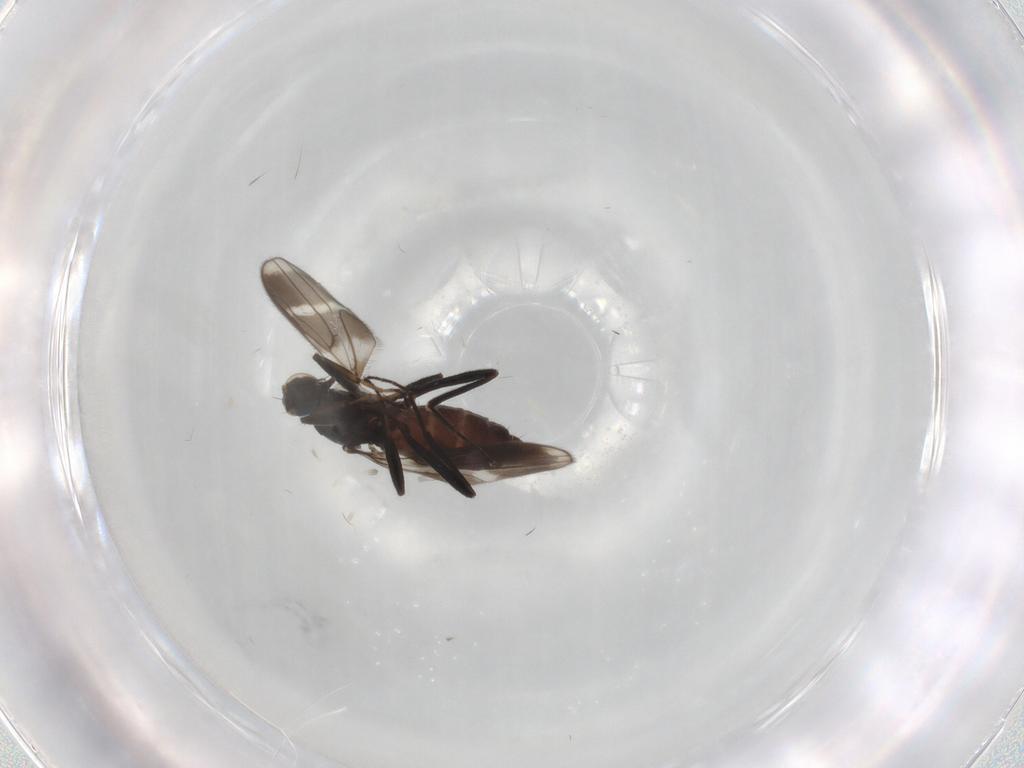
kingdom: Animalia
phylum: Arthropoda
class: Insecta
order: Diptera
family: Hybotidae
